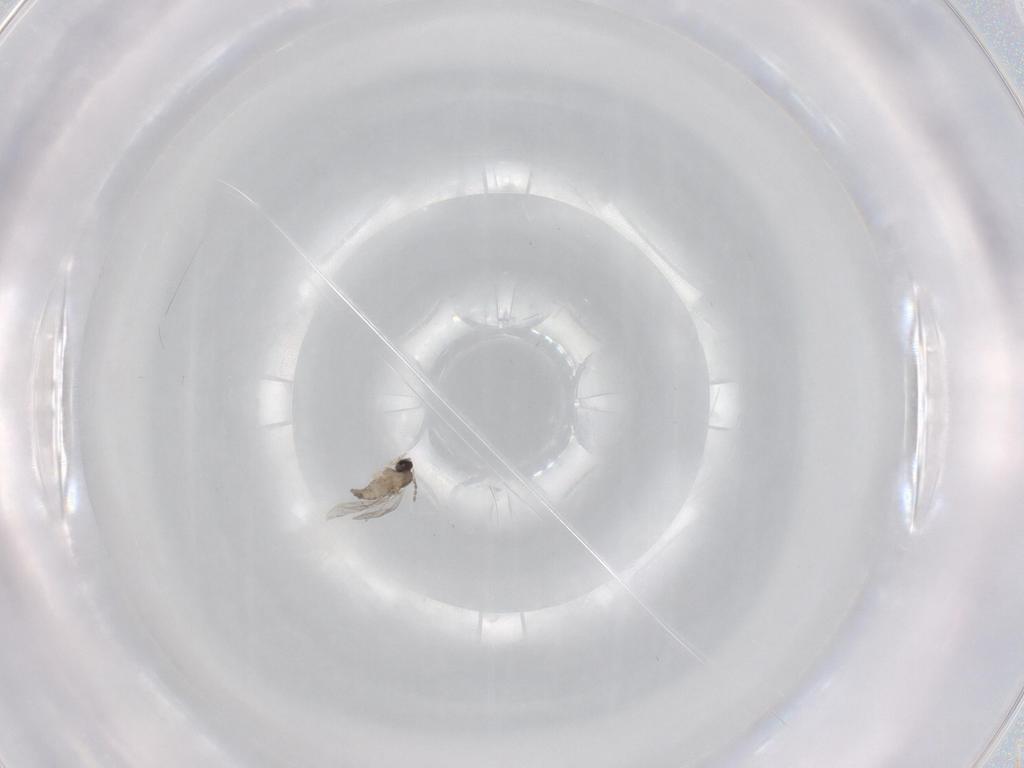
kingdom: Animalia
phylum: Arthropoda
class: Insecta
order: Diptera
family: Cecidomyiidae
